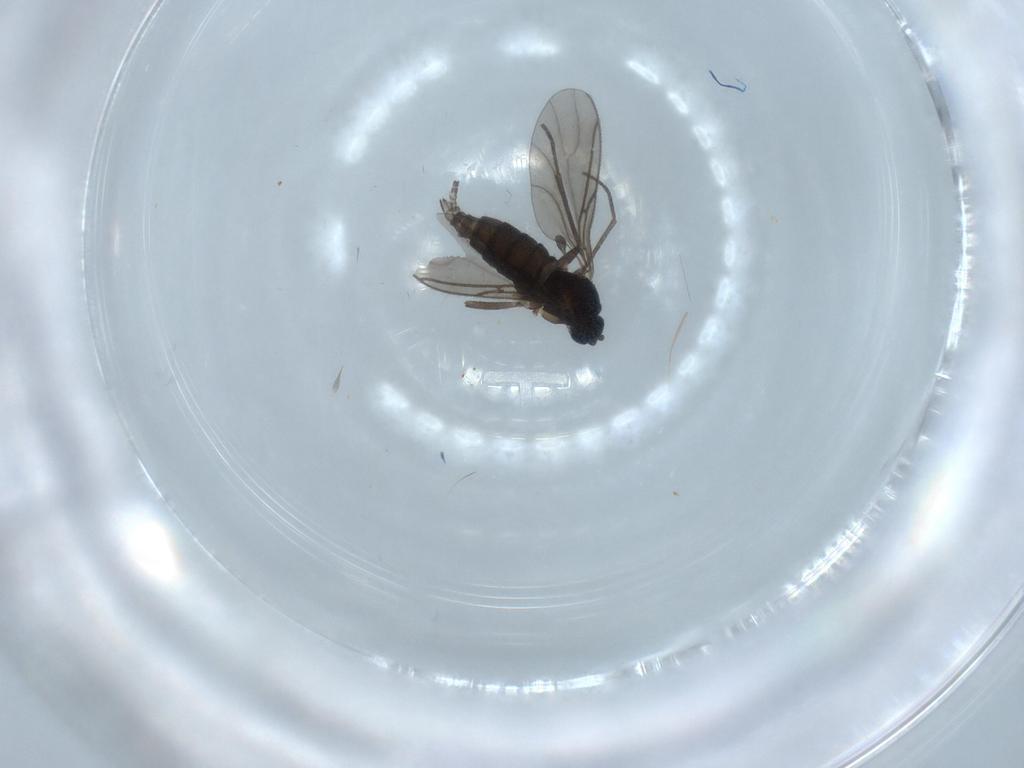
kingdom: Animalia
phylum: Arthropoda
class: Insecta
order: Diptera
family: Sciaridae
